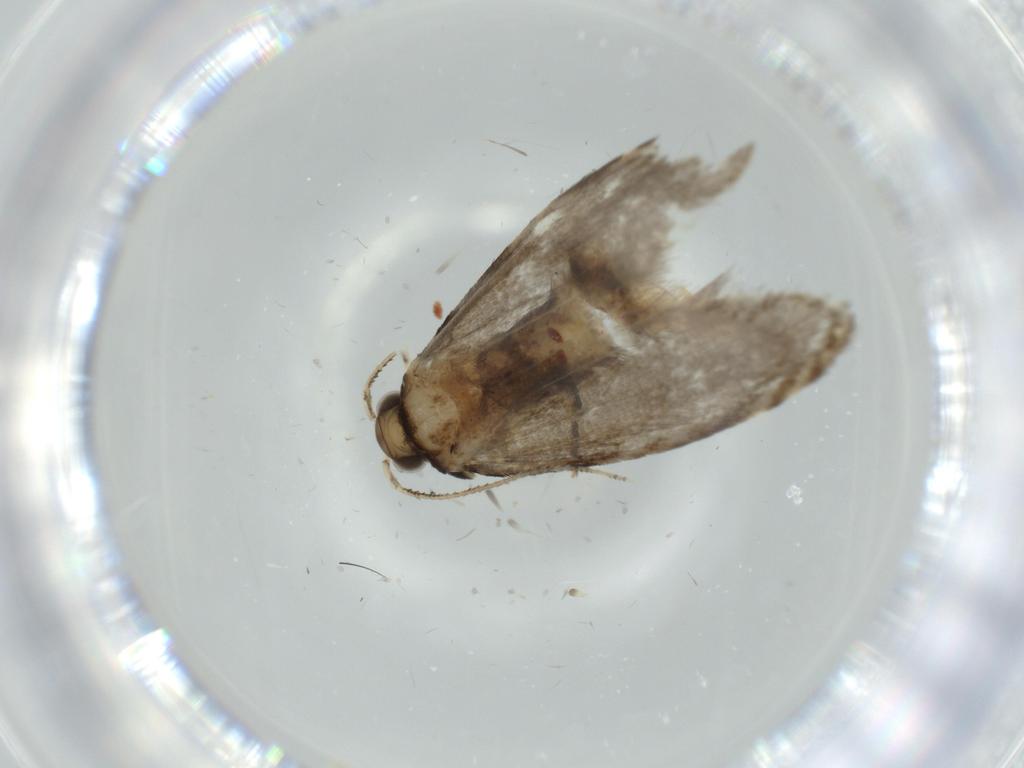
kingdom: Animalia
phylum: Arthropoda
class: Insecta
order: Lepidoptera
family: Tineidae
